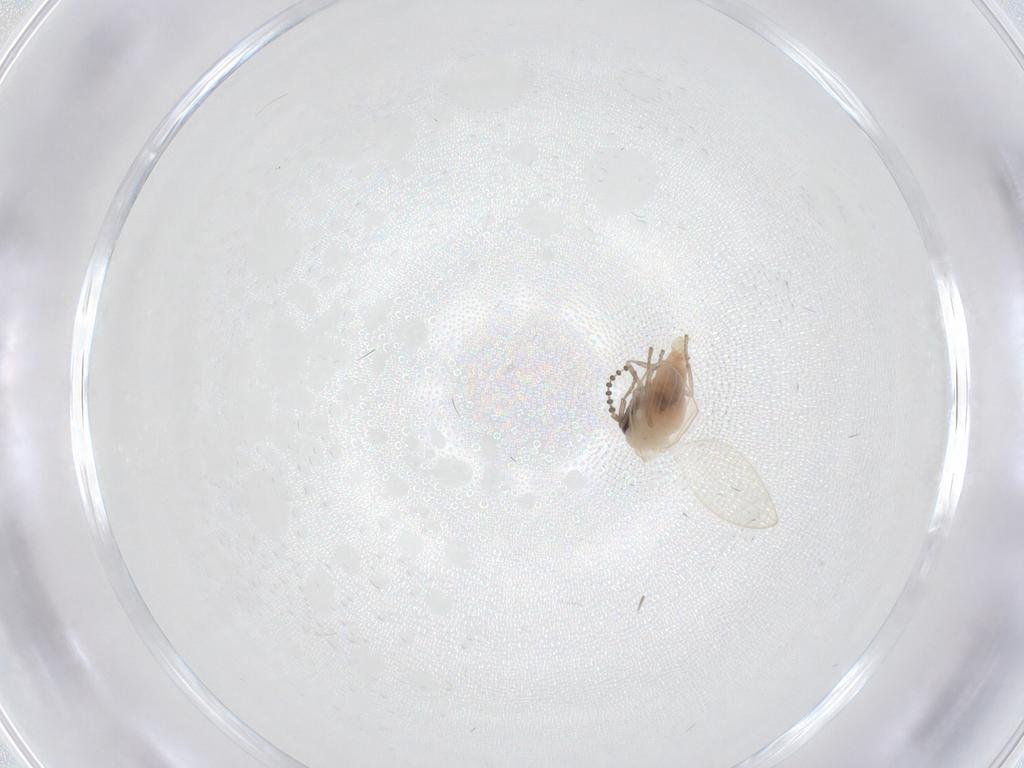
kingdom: Animalia
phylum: Arthropoda
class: Insecta
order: Diptera
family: Psychodidae
